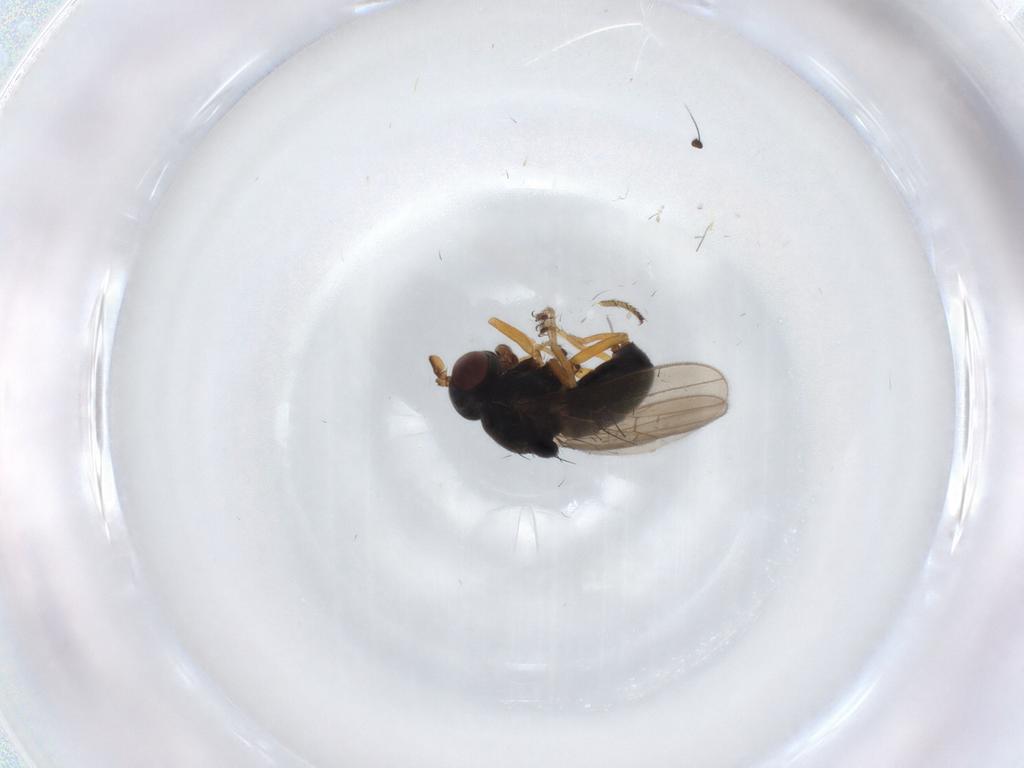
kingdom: Animalia
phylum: Arthropoda
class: Insecta
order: Diptera
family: Ephydridae
